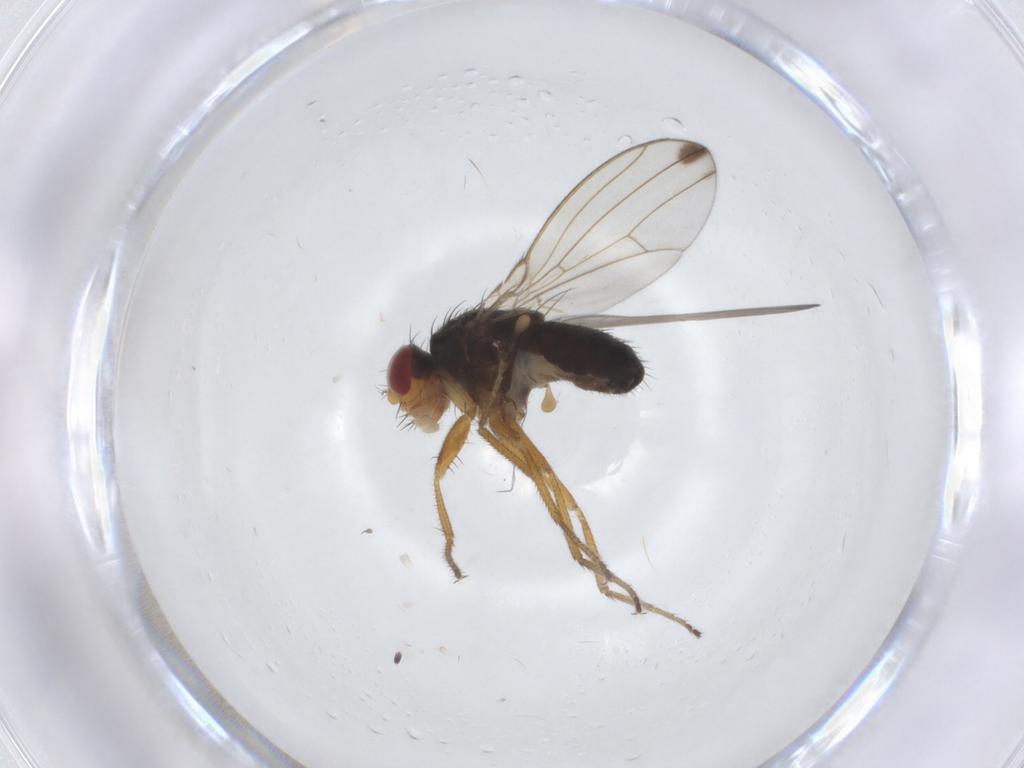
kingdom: Animalia
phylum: Arthropoda
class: Insecta
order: Diptera
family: Drosophilidae
